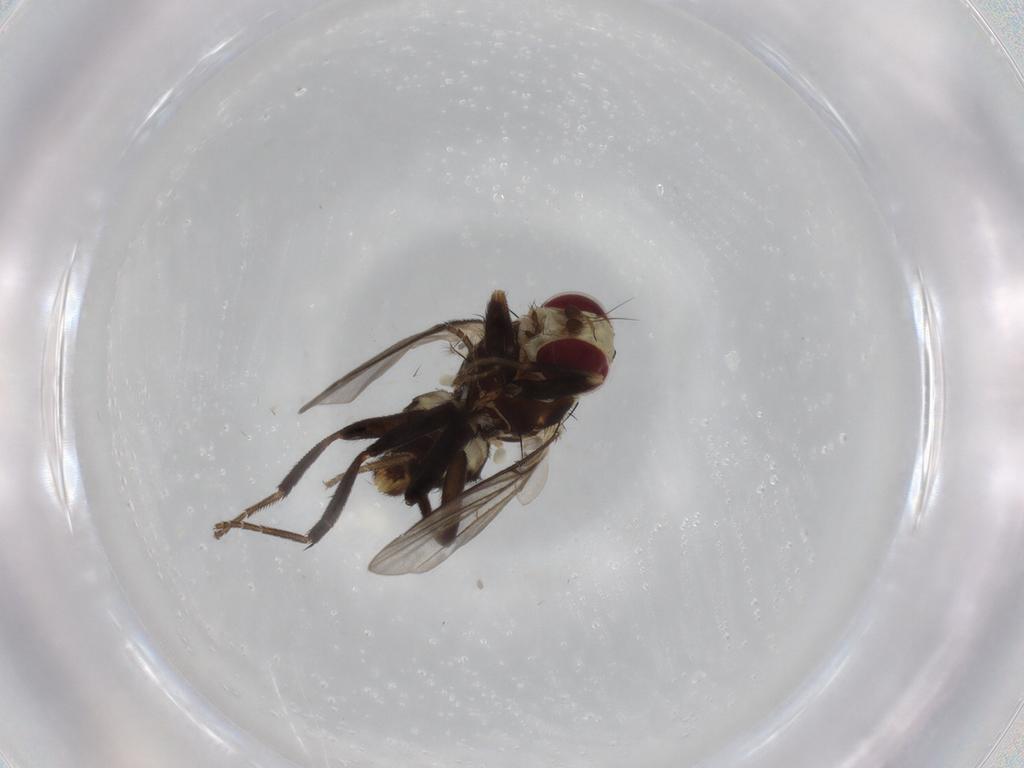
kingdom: Animalia
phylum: Arthropoda
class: Insecta
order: Diptera
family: Agromyzidae
